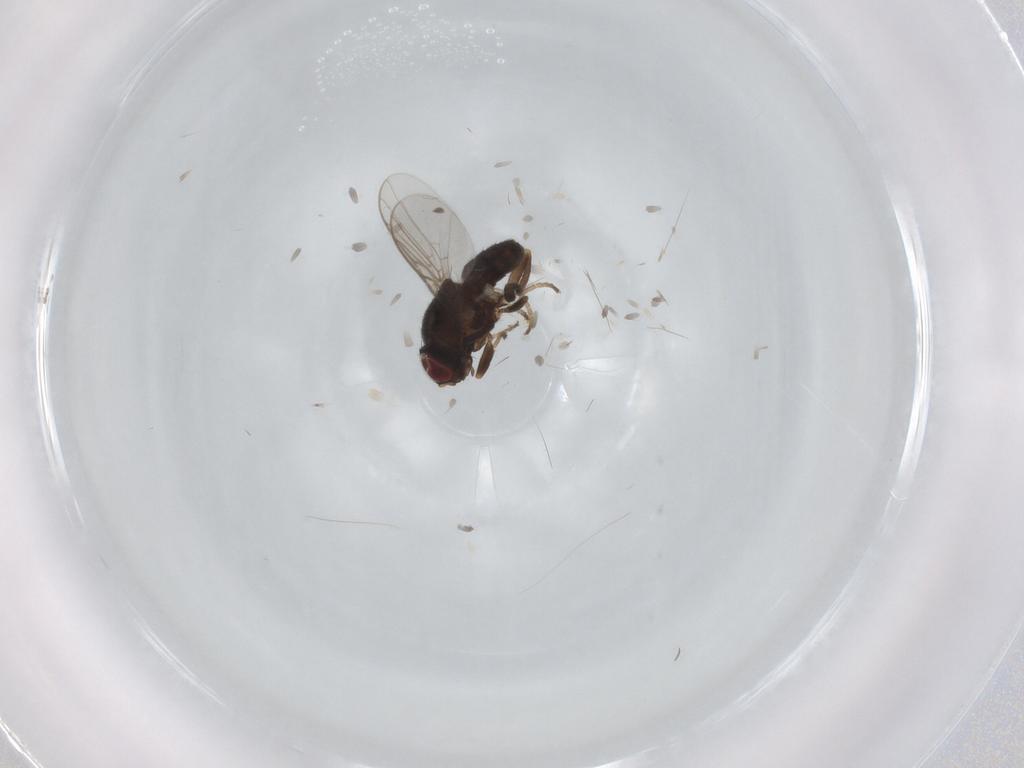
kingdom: Animalia
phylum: Arthropoda
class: Insecta
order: Diptera
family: Chloropidae
